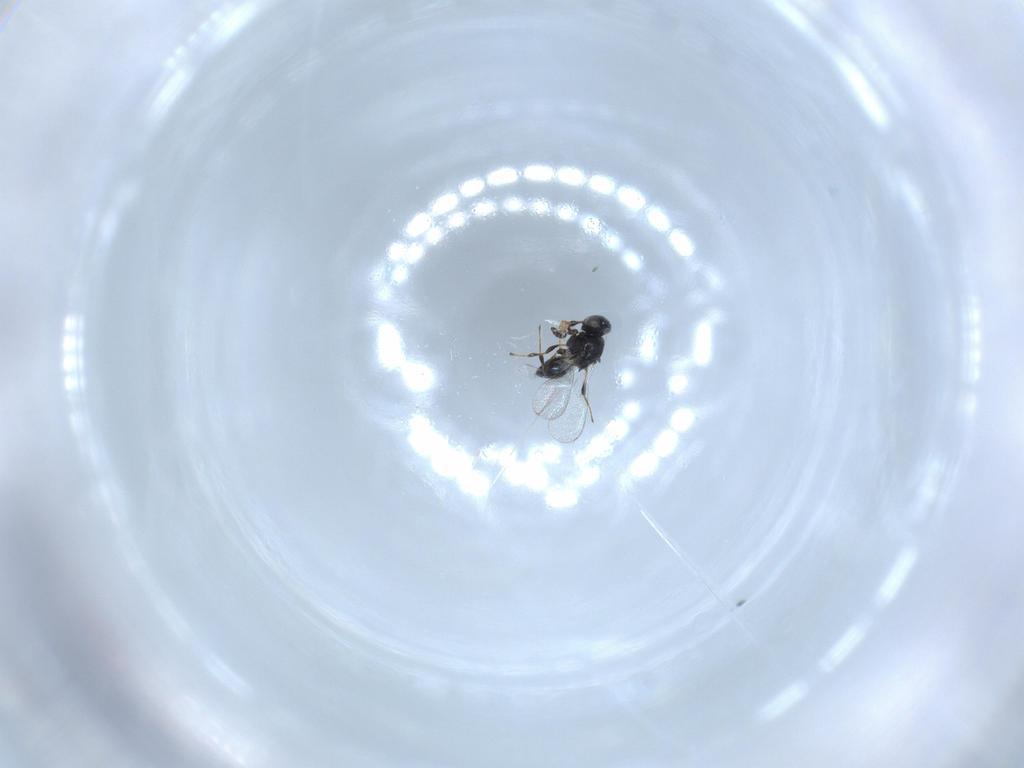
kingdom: Animalia
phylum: Arthropoda
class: Insecta
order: Hymenoptera
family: Platygastridae
